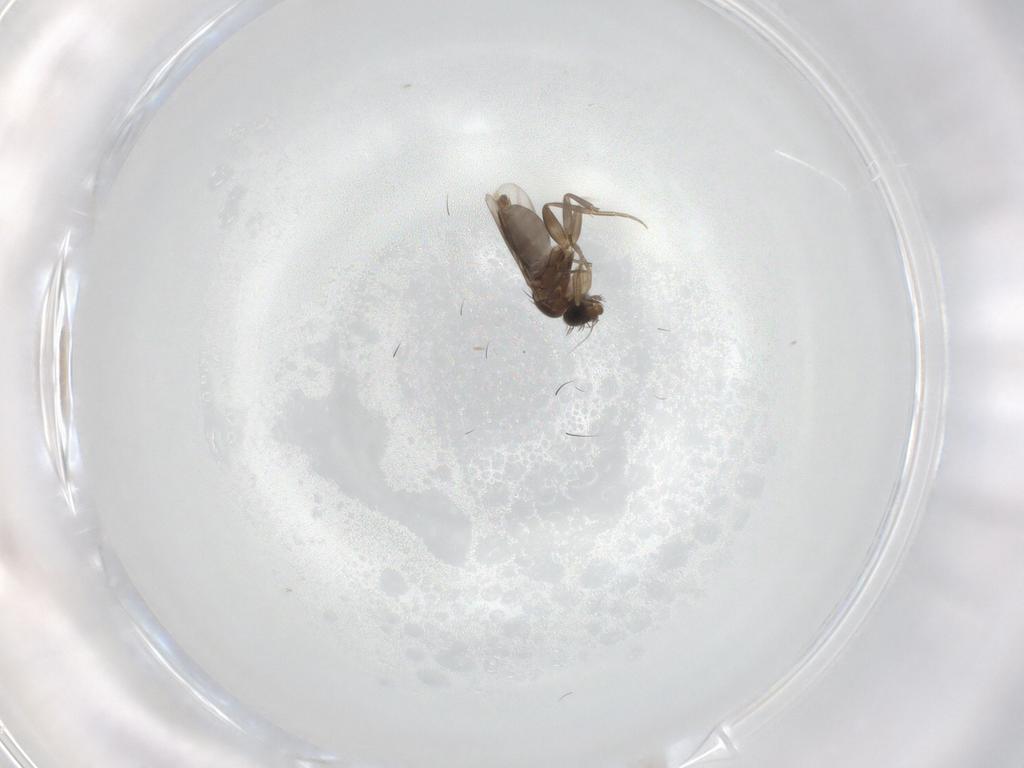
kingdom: Animalia
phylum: Arthropoda
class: Insecta
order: Diptera
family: Phoridae
